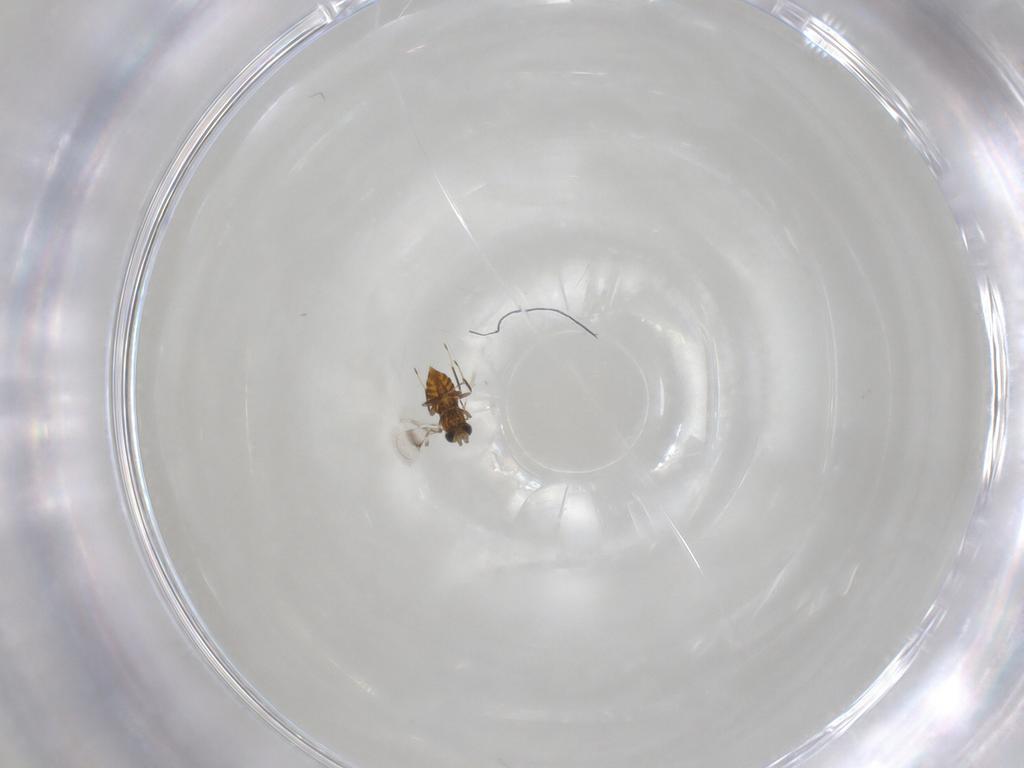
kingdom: Animalia
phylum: Arthropoda
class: Insecta
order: Hymenoptera
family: Trichogrammatidae
